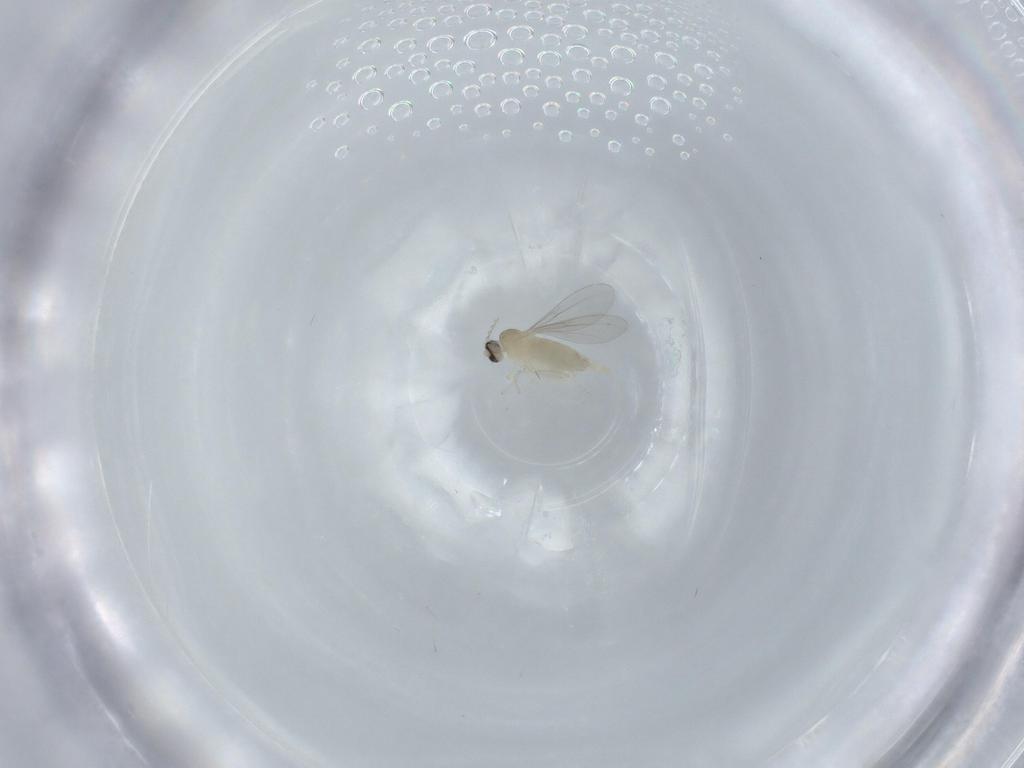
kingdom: Animalia
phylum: Arthropoda
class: Insecta
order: Diptera
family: Cecidomyiidae
